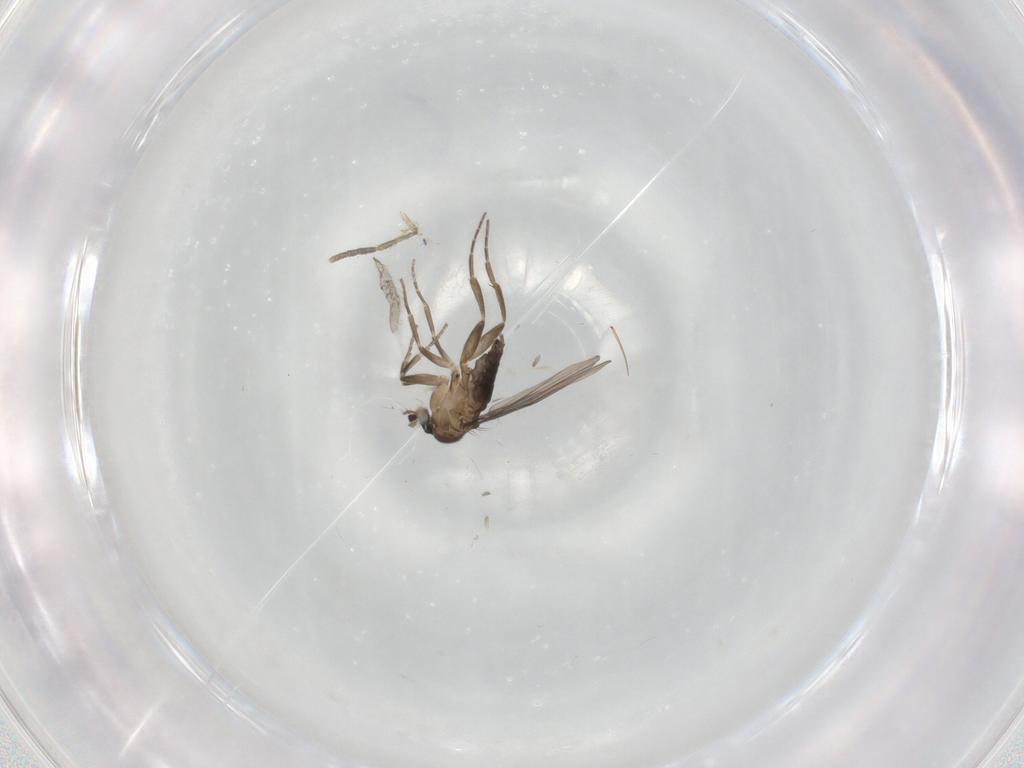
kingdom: Animalia
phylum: Arthropoda
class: Insecta
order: Diptera
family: Phoridae
